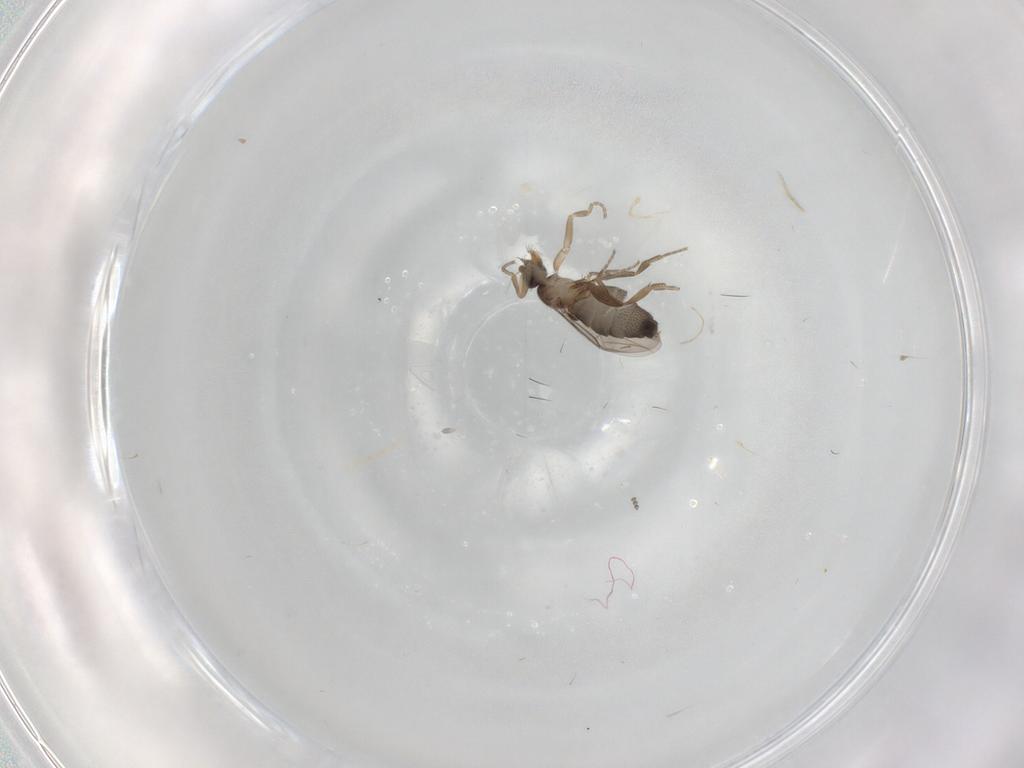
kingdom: Animalia
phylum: Arthropoda
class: Insecta
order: Diptera
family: Phoridae
